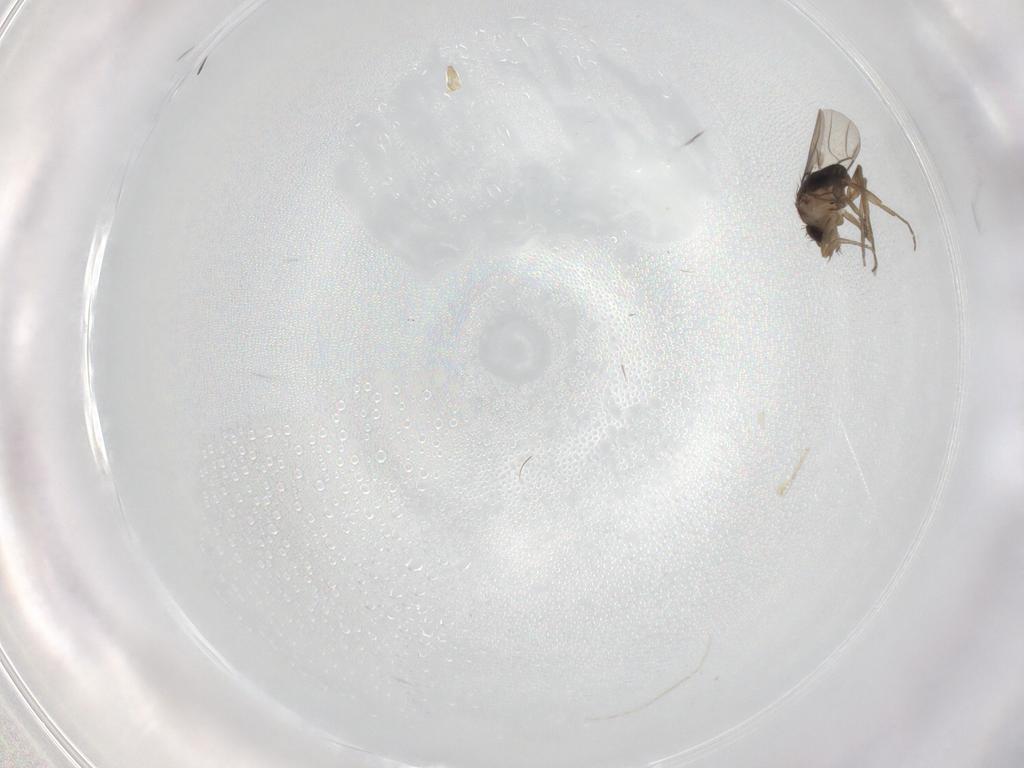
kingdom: Animalia
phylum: Arthropoda
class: Insecta
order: Diptera
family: Phoridae
